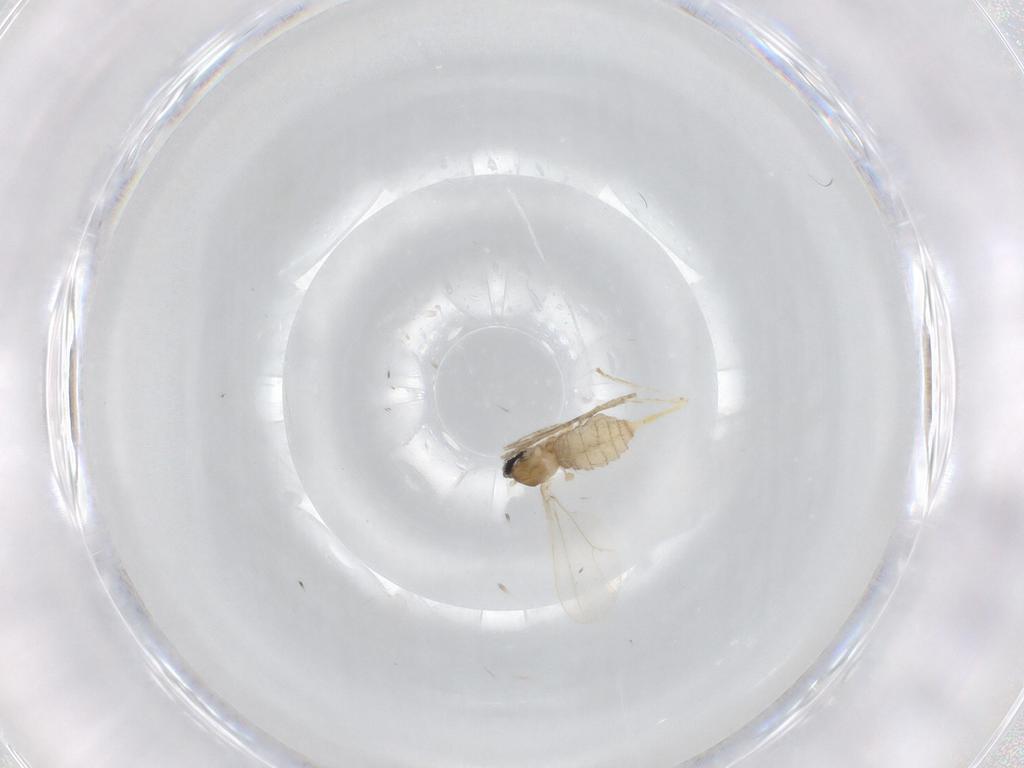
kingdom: Animalia
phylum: Arthropoda
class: Insecta
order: Diptera
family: Cecidomyiidae
